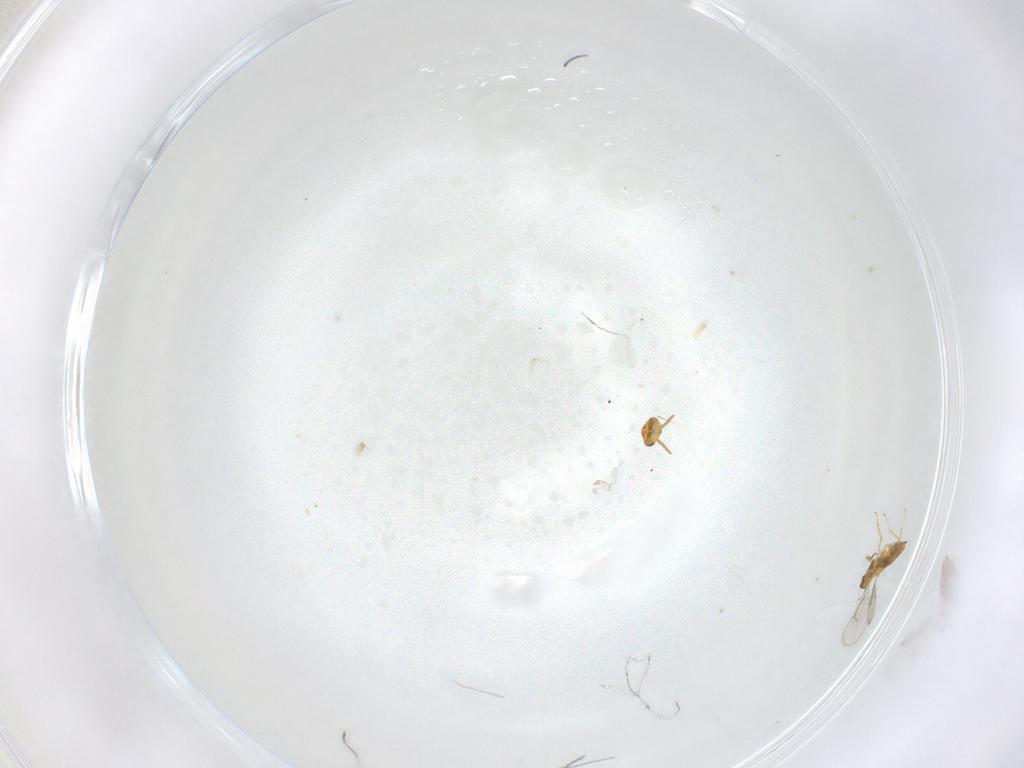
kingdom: Animalia
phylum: Arthropoda
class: Insecta
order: Hymenoptera
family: Aphelinidae
